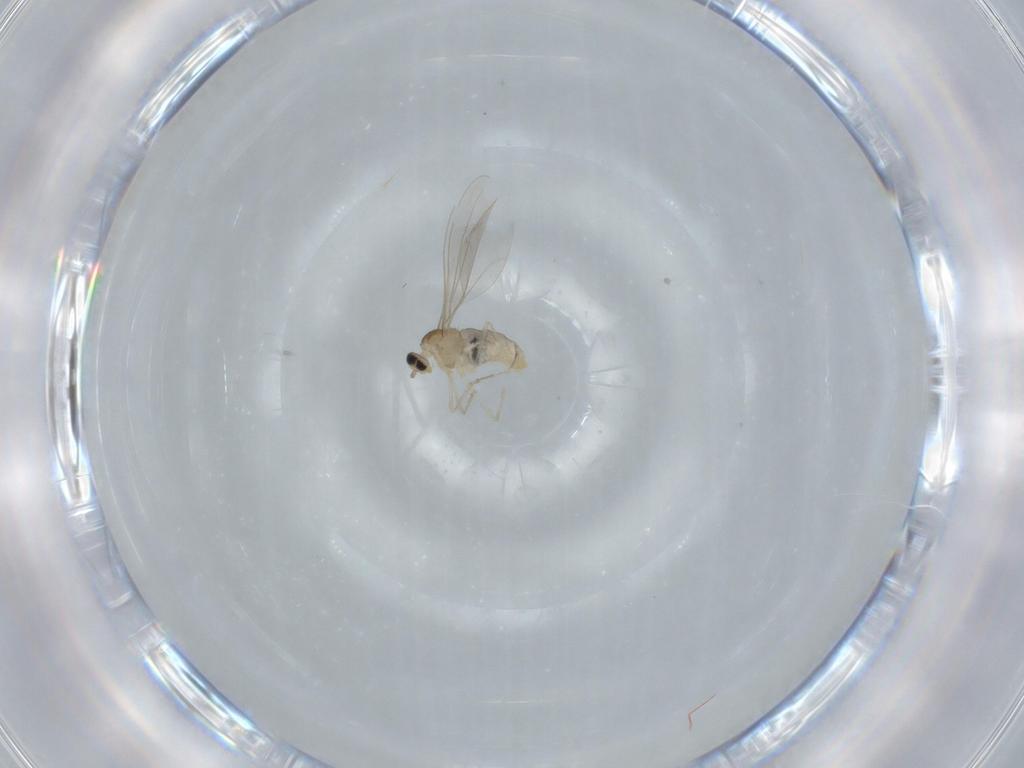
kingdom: Animalia
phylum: Arthropoda
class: Insecta
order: Diptera
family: Cecidomyiidae
